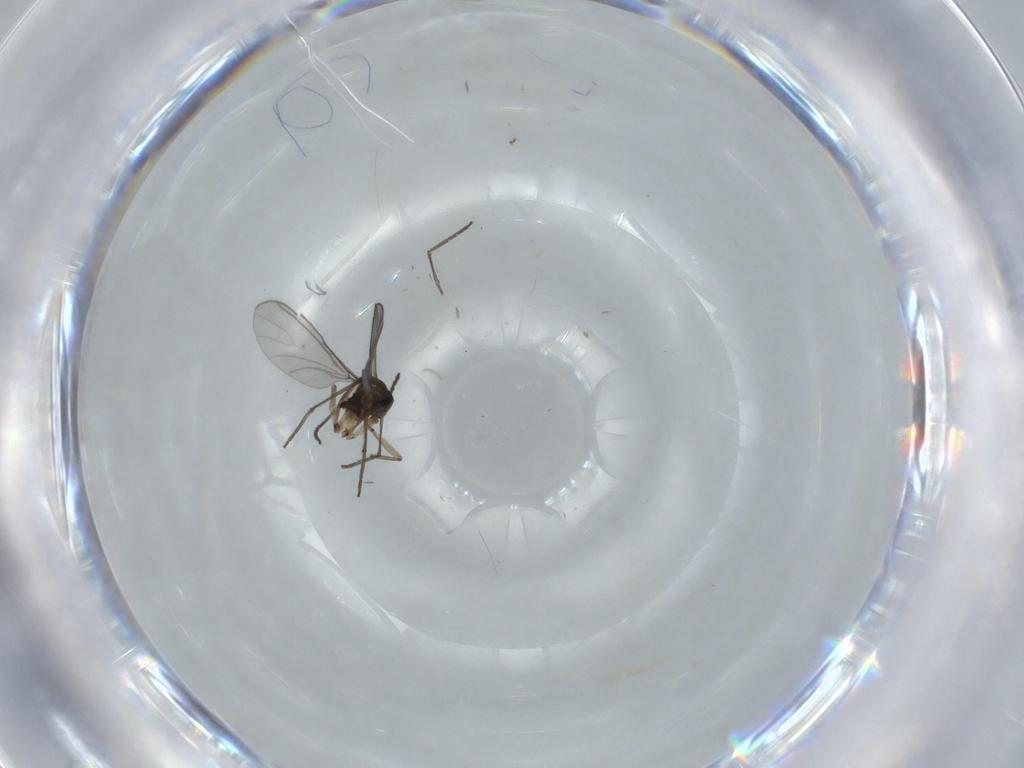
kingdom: Animalia
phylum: Arthropoda
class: Insecta
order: Diptera
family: Sciaridae
